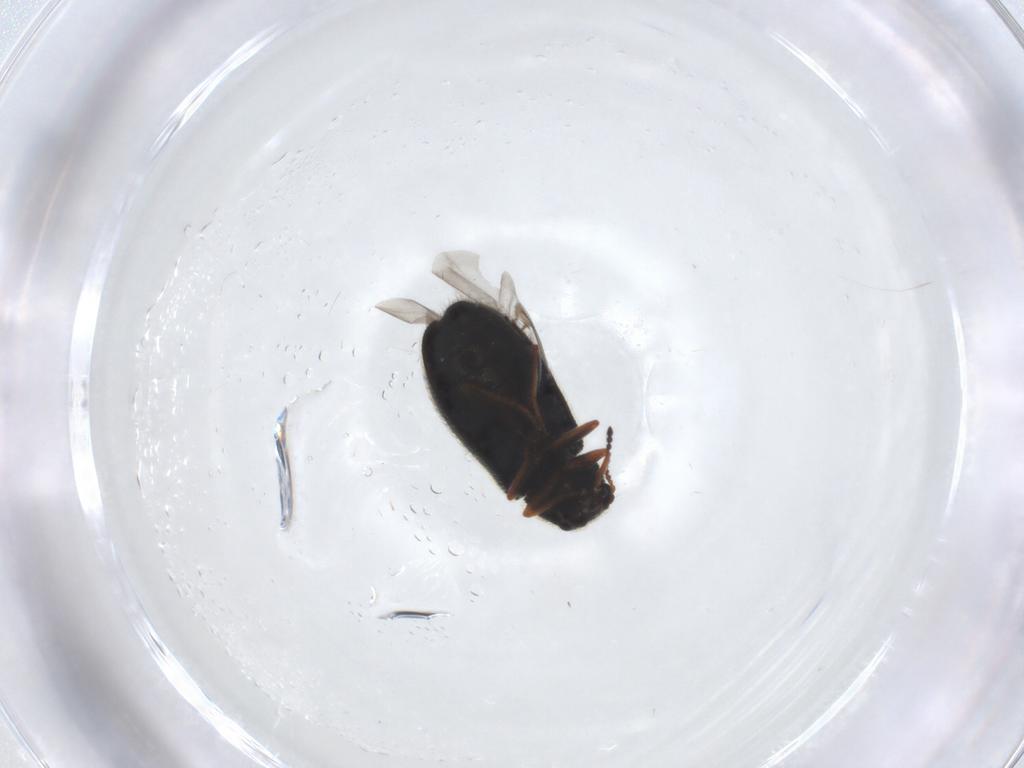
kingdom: Animalia
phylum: Arthropoda
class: Insecta
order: Coleoptera
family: Melyridae
